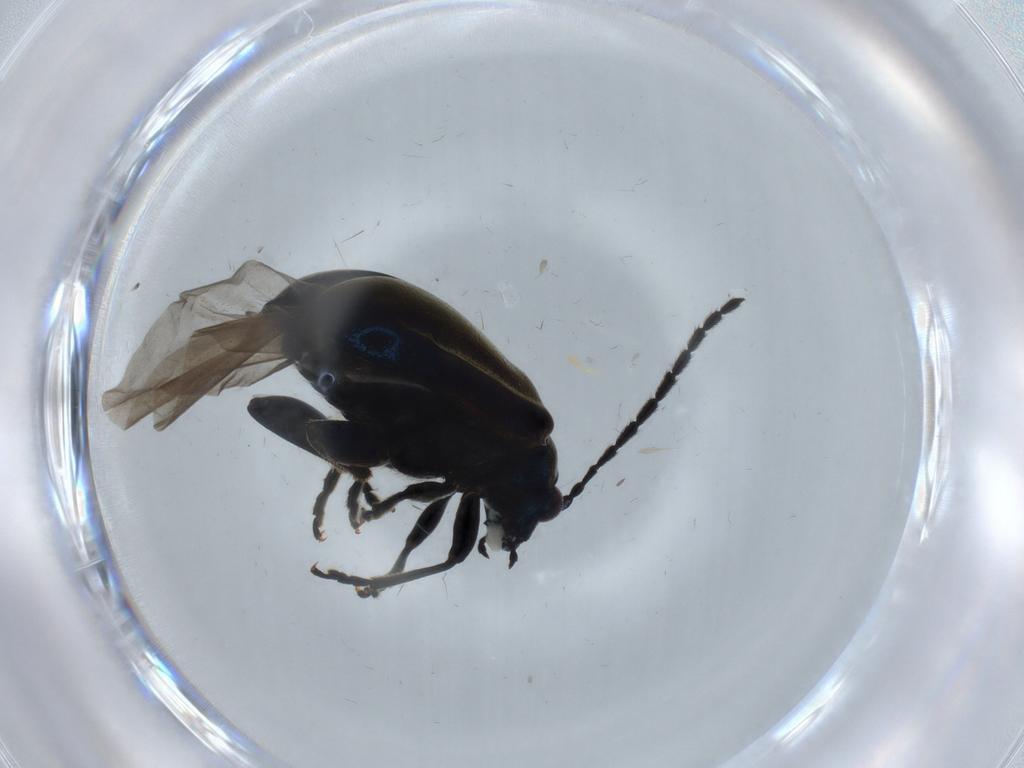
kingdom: Animalia
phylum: Arthropoda
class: Insecta
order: Coleoptera
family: Chrysomelidae
